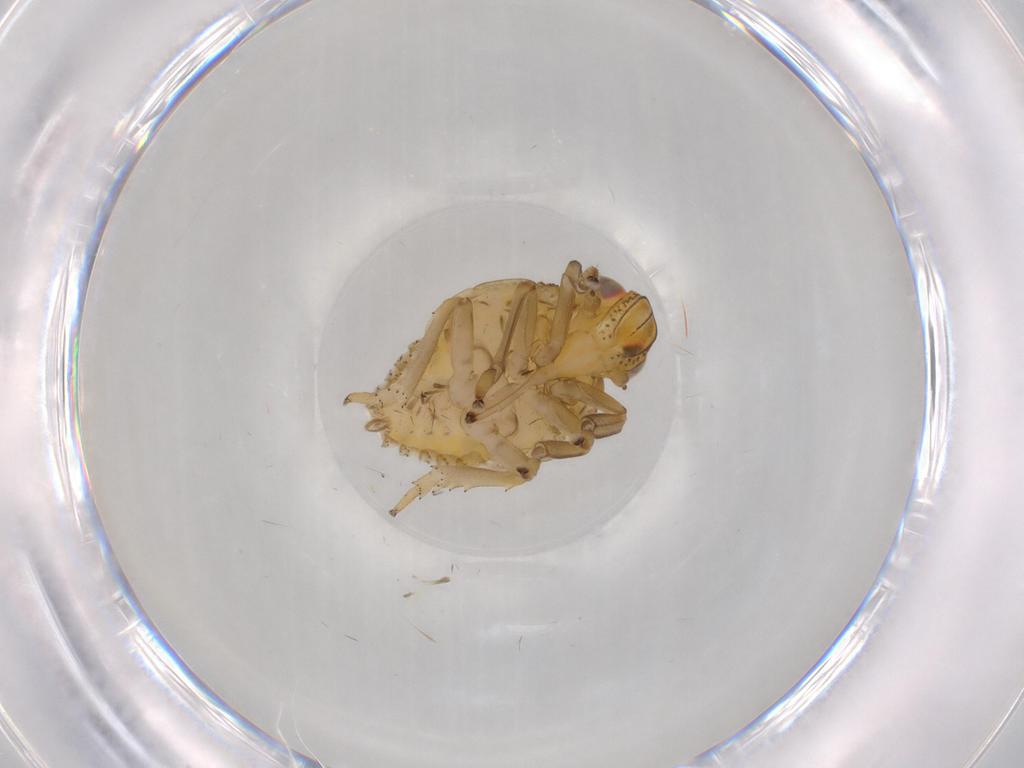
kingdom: Animalia
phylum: Arthropoda
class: Insecta
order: Hemiptera
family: Issidae
